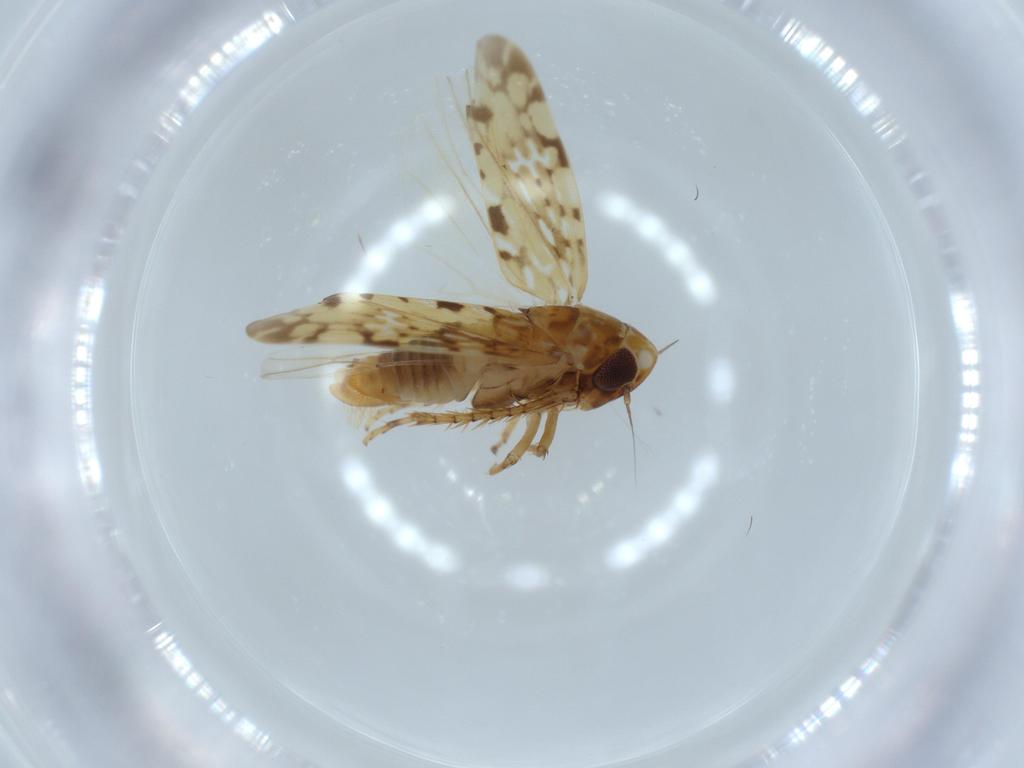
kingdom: Animalia
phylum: Arthropoda
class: Insecta
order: Hemiptera
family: Cicadellidae
